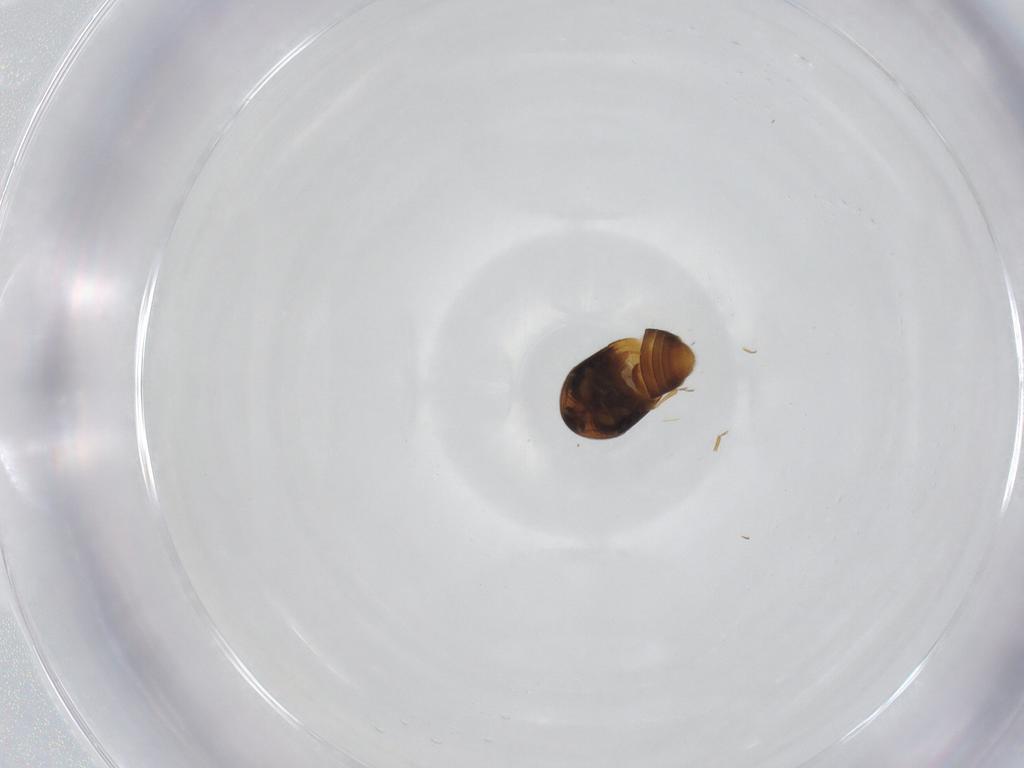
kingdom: Animalia
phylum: Arthropoda
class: Insecta
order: Coleoptera
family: Corylophidae
